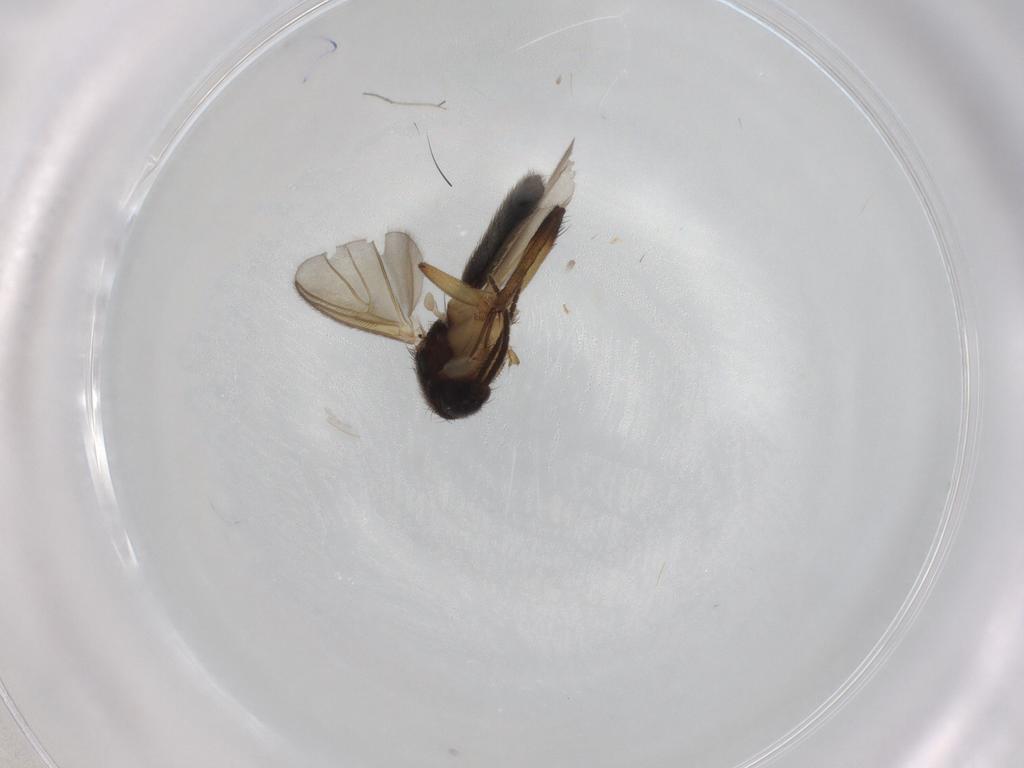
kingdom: Animalia
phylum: Arthropoda
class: Insecta
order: Diptera
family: Mycetophilidae
